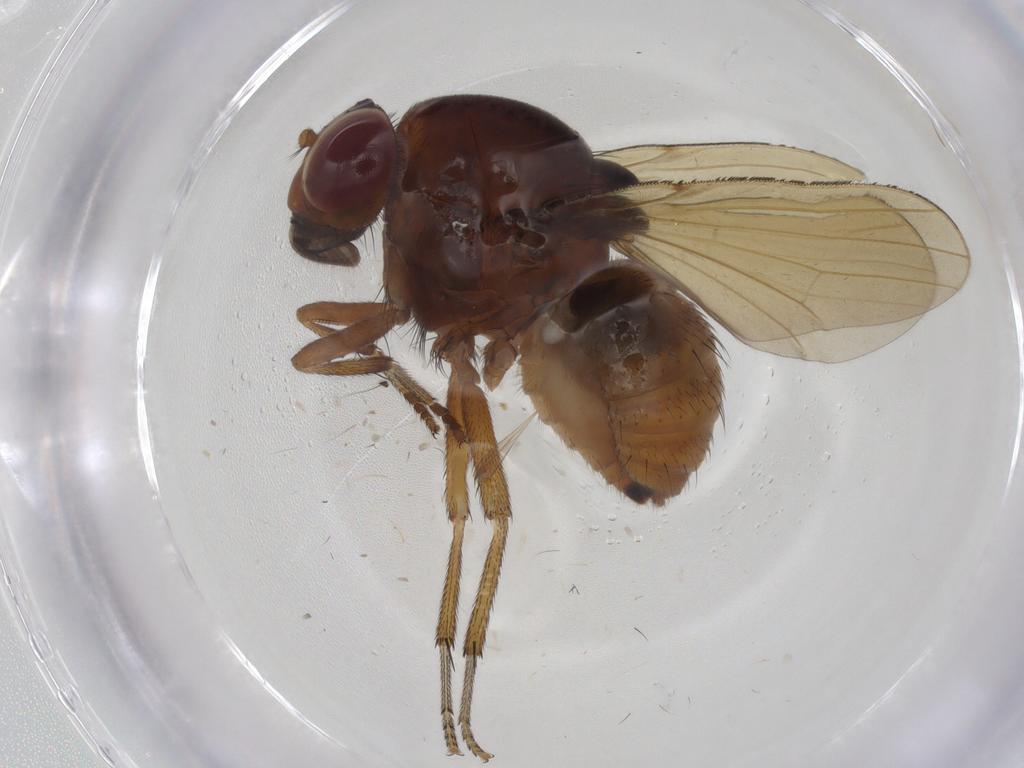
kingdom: Animalia
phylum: Arthropoda
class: Insecta
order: Diptera
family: Lauxaniidae
